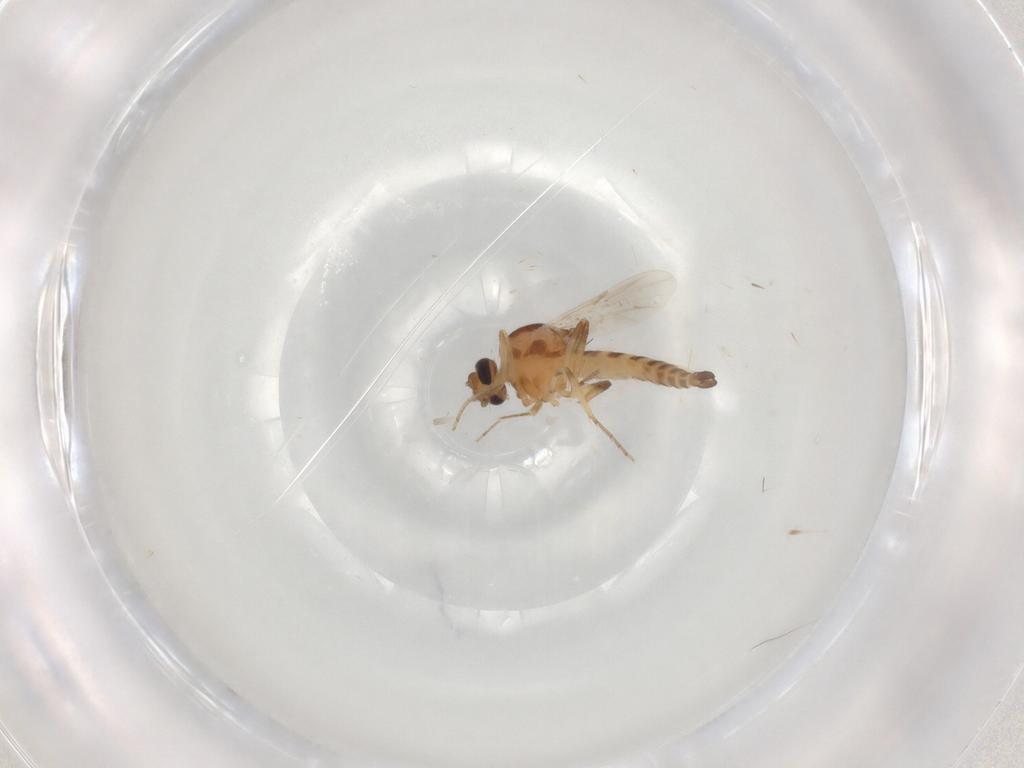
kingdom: Animalia
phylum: Arthropoda
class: Insecta
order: Diptera
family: Ceratopogonidae
